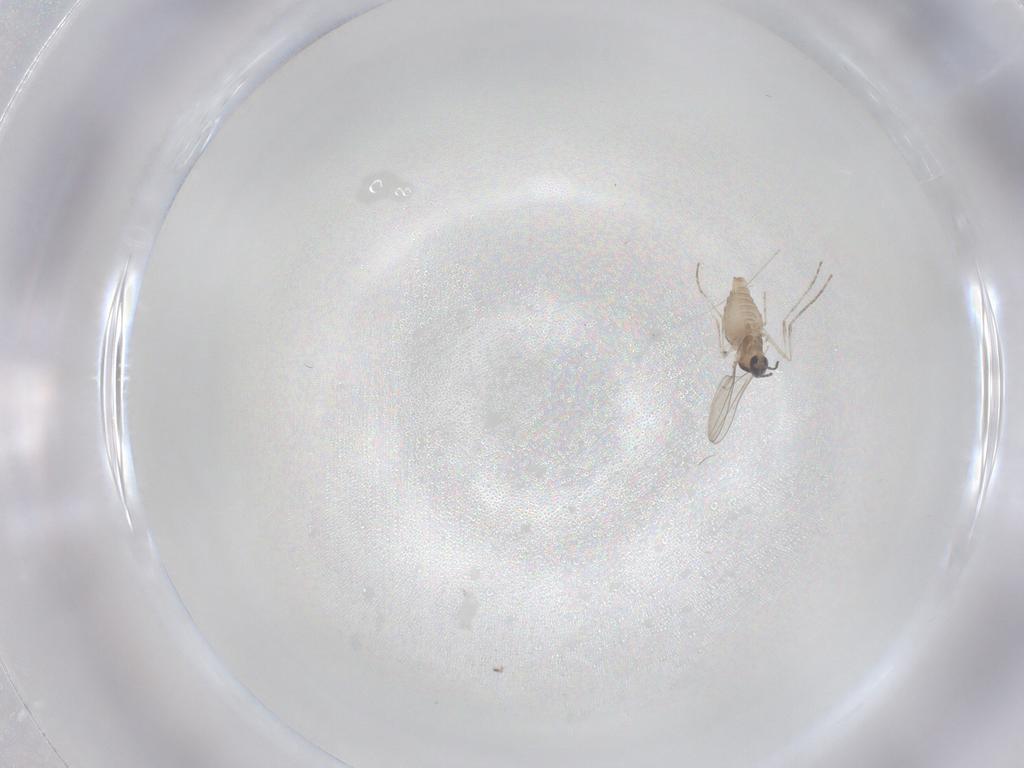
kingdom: Animalia
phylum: Arthropoda
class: Insecta
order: Diptera
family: Cecidomyiidae
